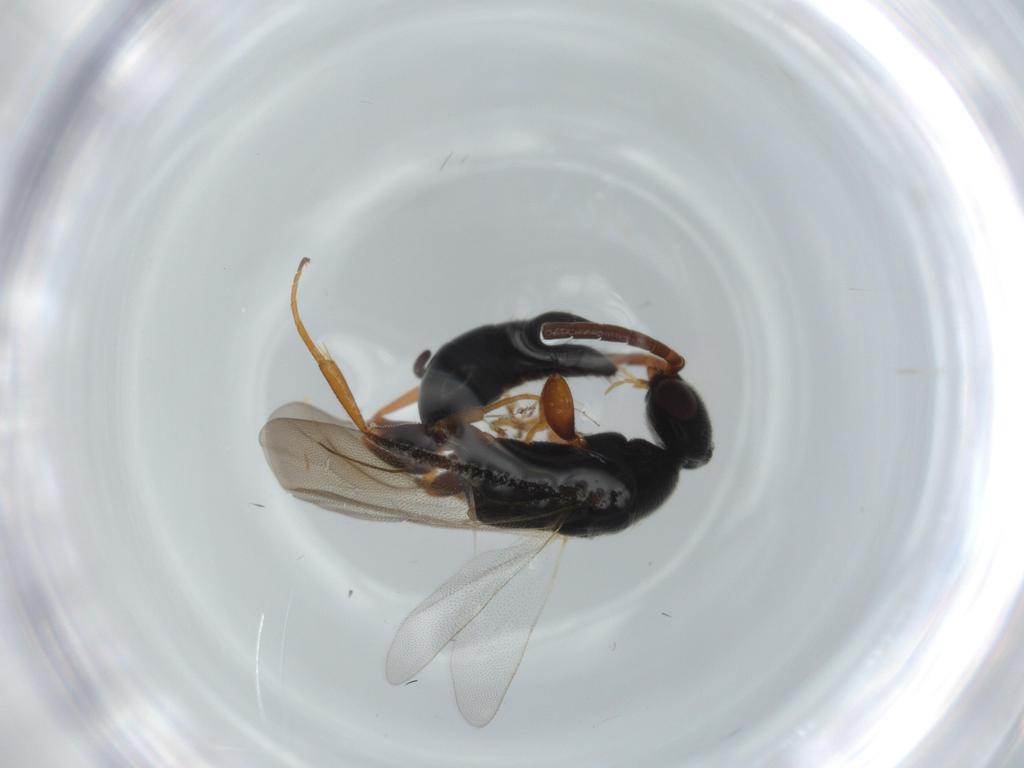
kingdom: Animalia
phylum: Arthropoda
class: Insecta
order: Hymenoptera
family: Bethylidae
